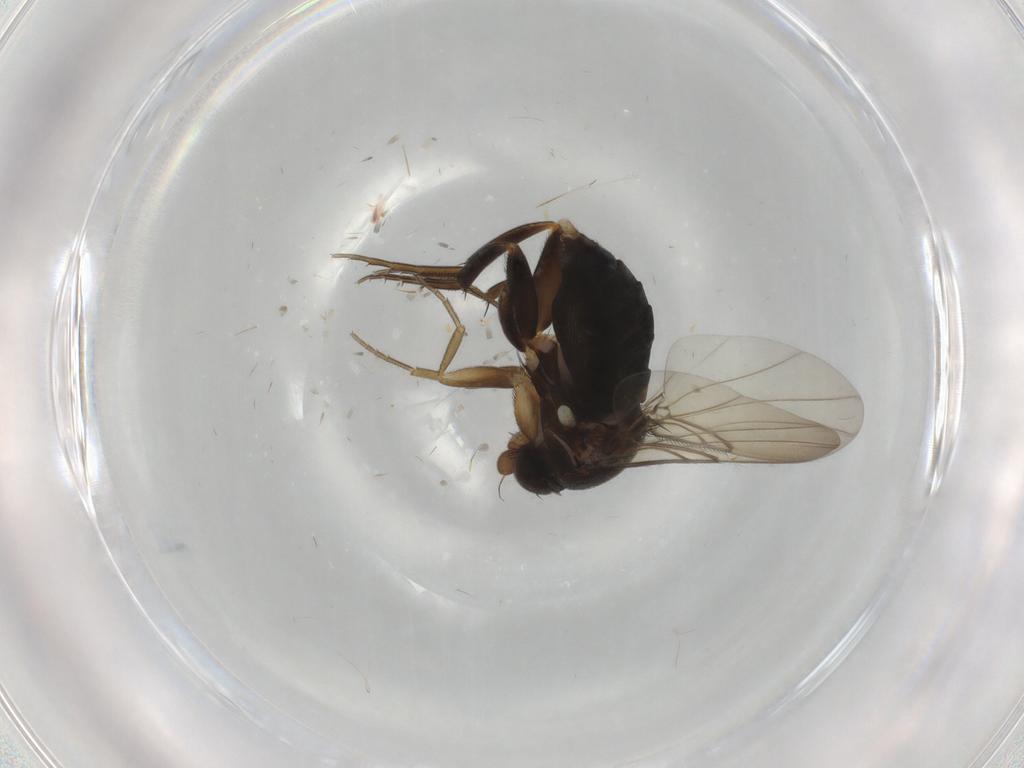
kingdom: Animalia
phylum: Arthropoda
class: Insecta
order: Diptera
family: Phoridae
